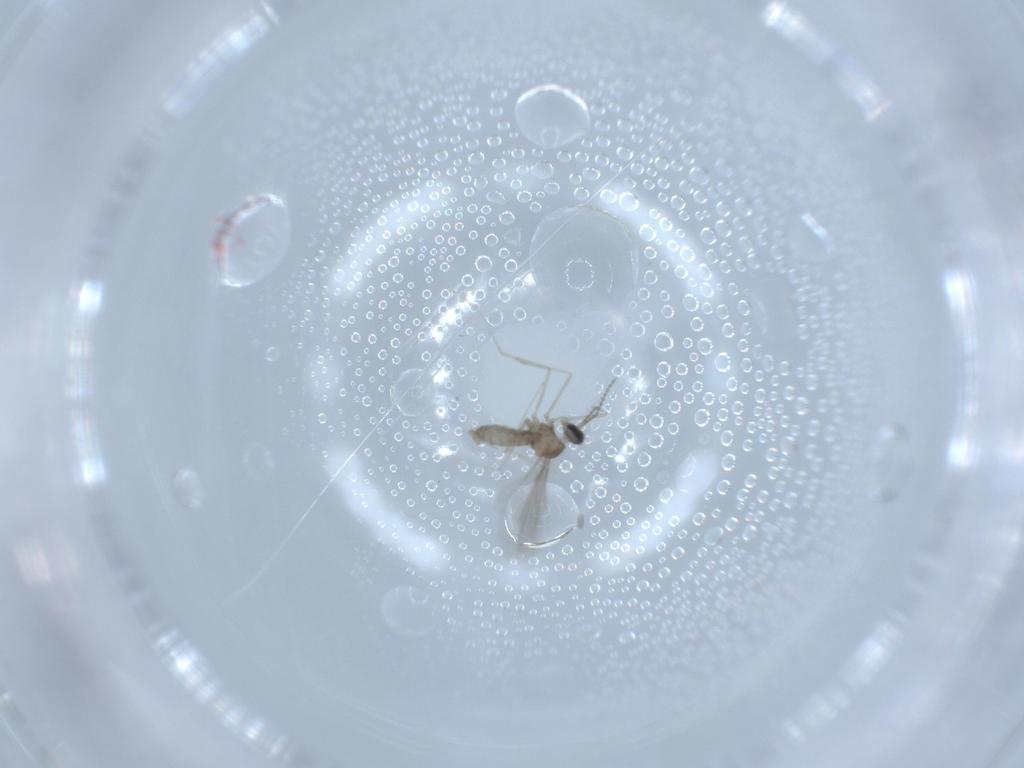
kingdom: Animalia
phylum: Arthropoda
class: Insecta
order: Diptera
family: Cecidomyiidae
